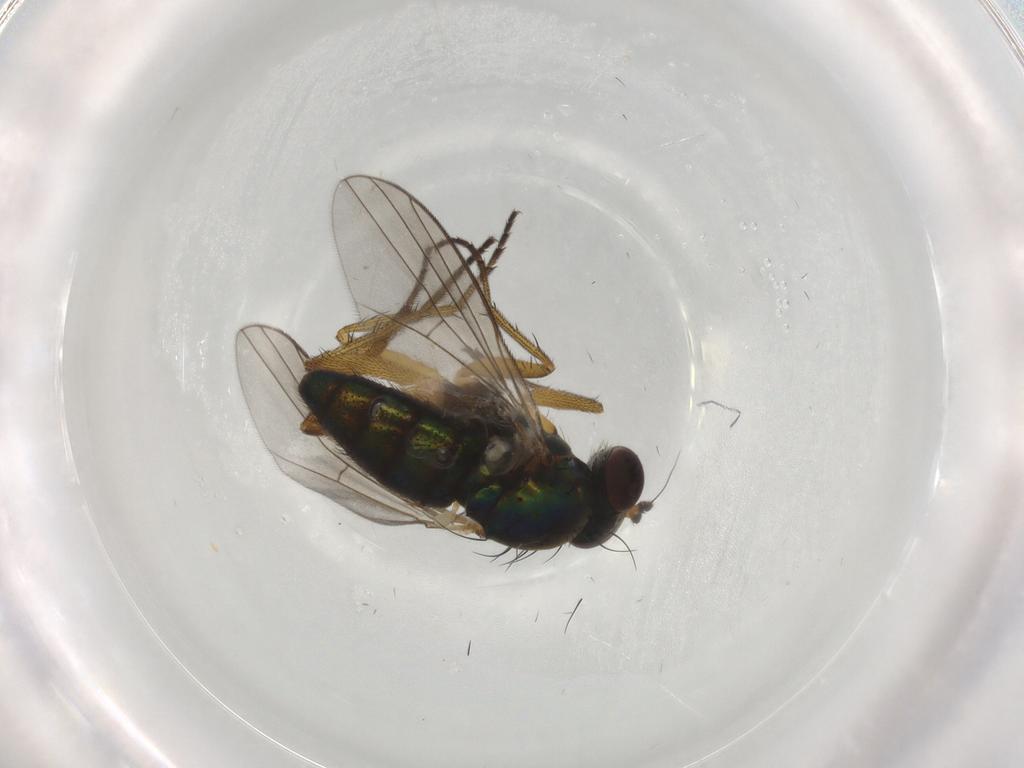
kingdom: Animalia
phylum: Arthropoda
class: Insecta
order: Diptera
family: Dolichopodidae
